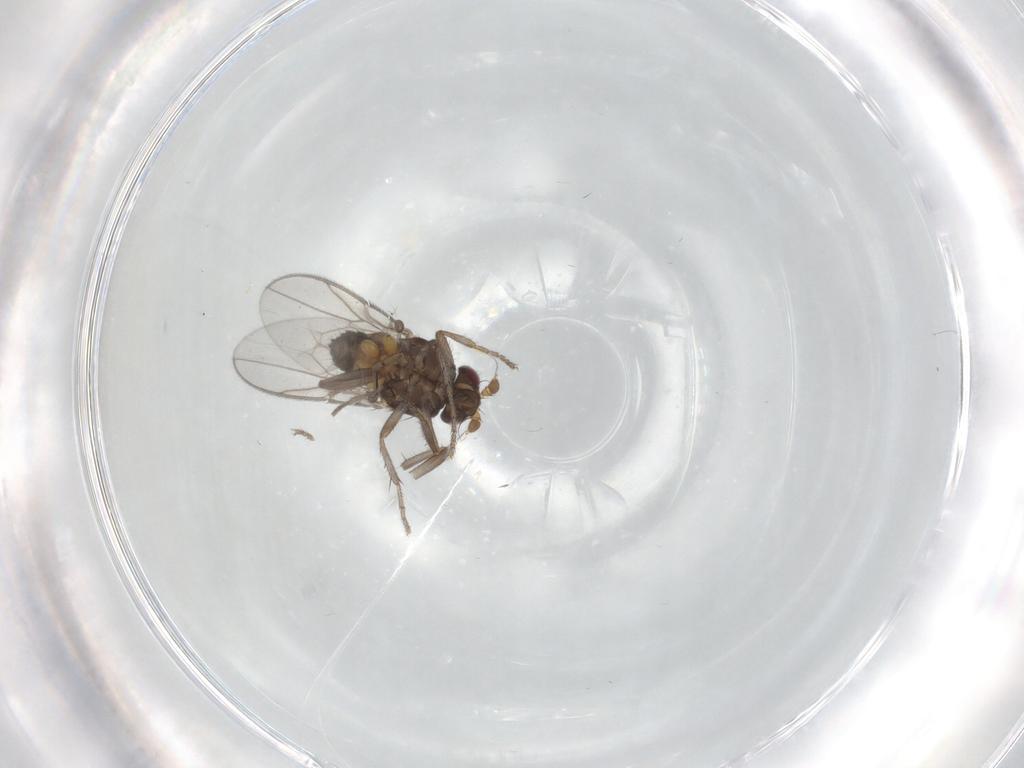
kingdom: Animalia
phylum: Arthropoda
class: Insecta
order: Diptera
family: Sphaeroceridae
